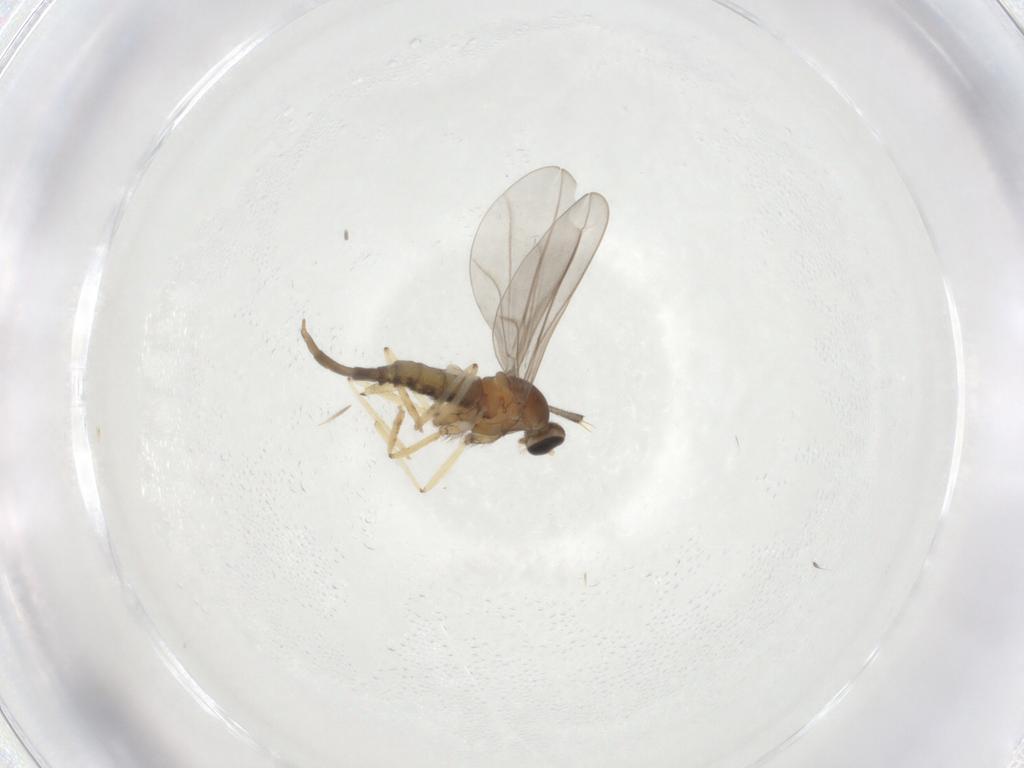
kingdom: Animalia
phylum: Arthropoda
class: Insecta
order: Diptera
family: Cecidomyiidae
